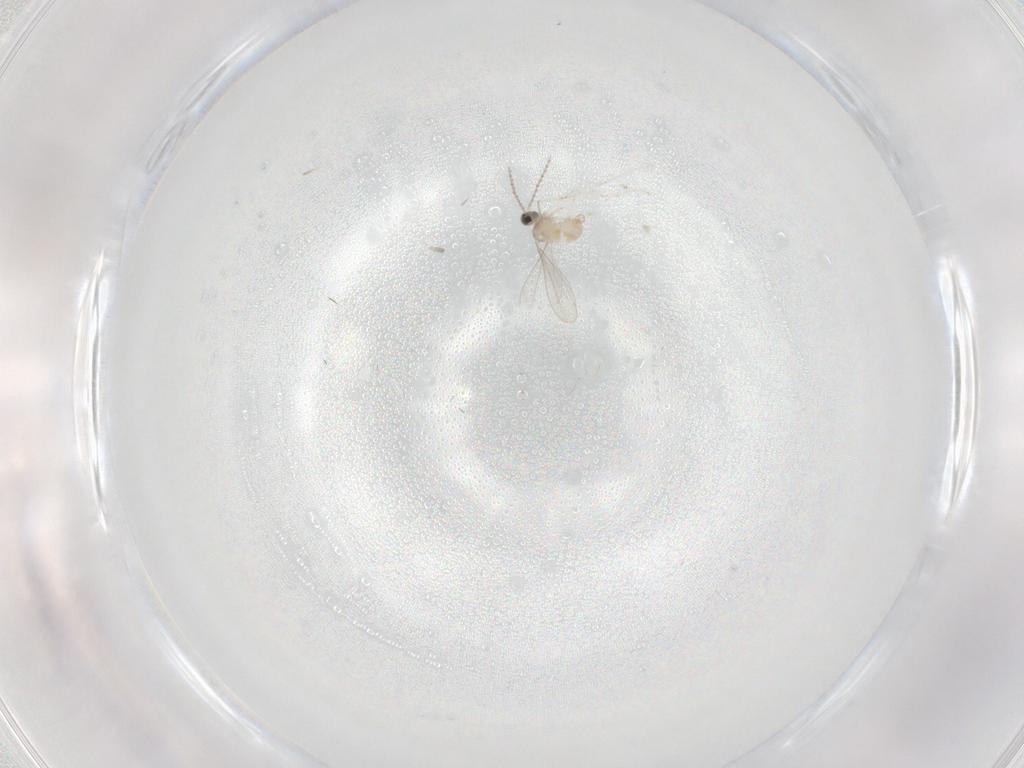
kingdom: Animalia
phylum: Arthropoda
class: Insecta
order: Diptera
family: Cecidomyiidae
